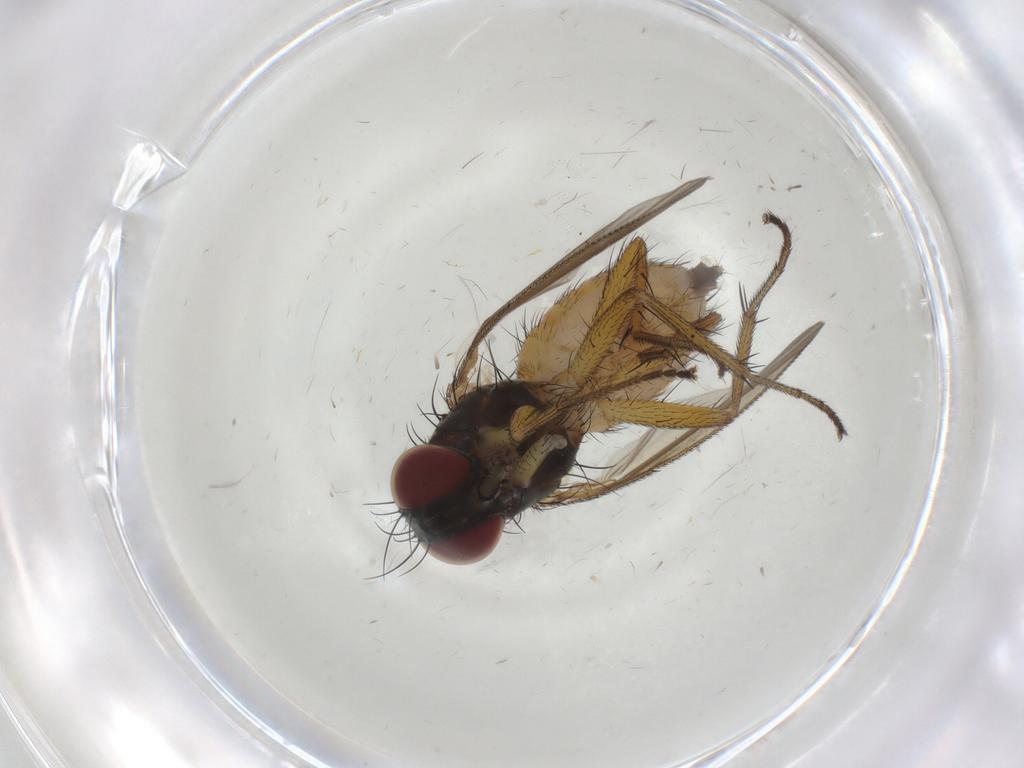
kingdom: Animalia
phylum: Arthropoda
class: Insecta
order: Diptera
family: Muscidae
